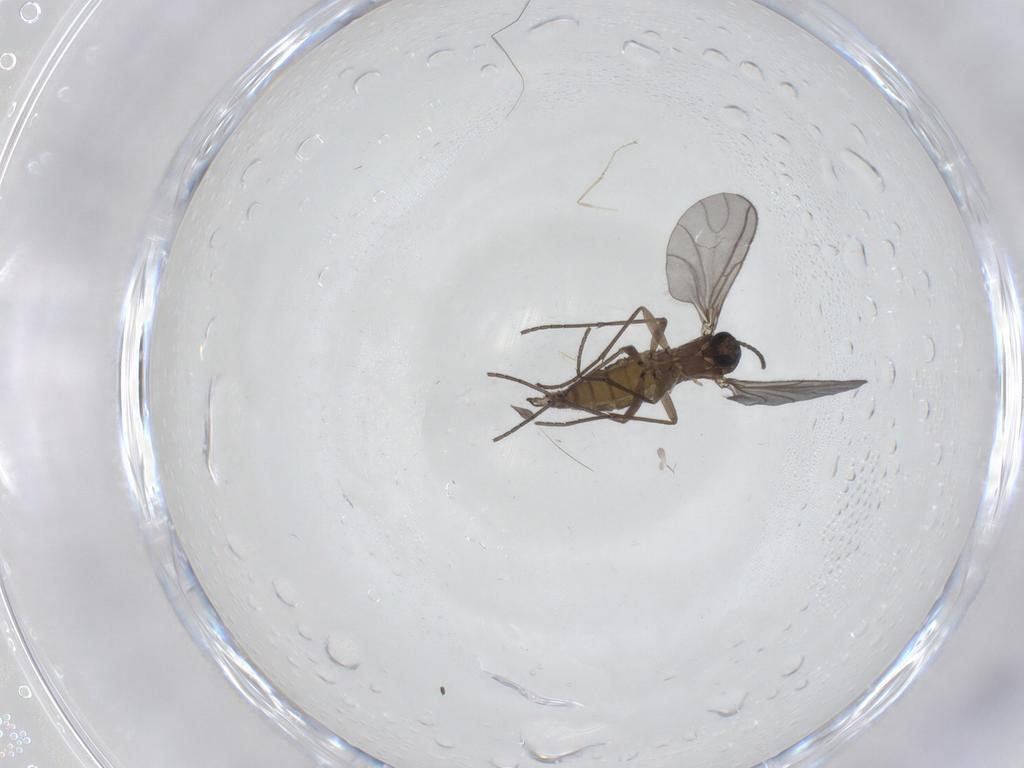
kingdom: Animalia
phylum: Arthropoda
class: Insecta
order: Diptera
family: Sciaridae
